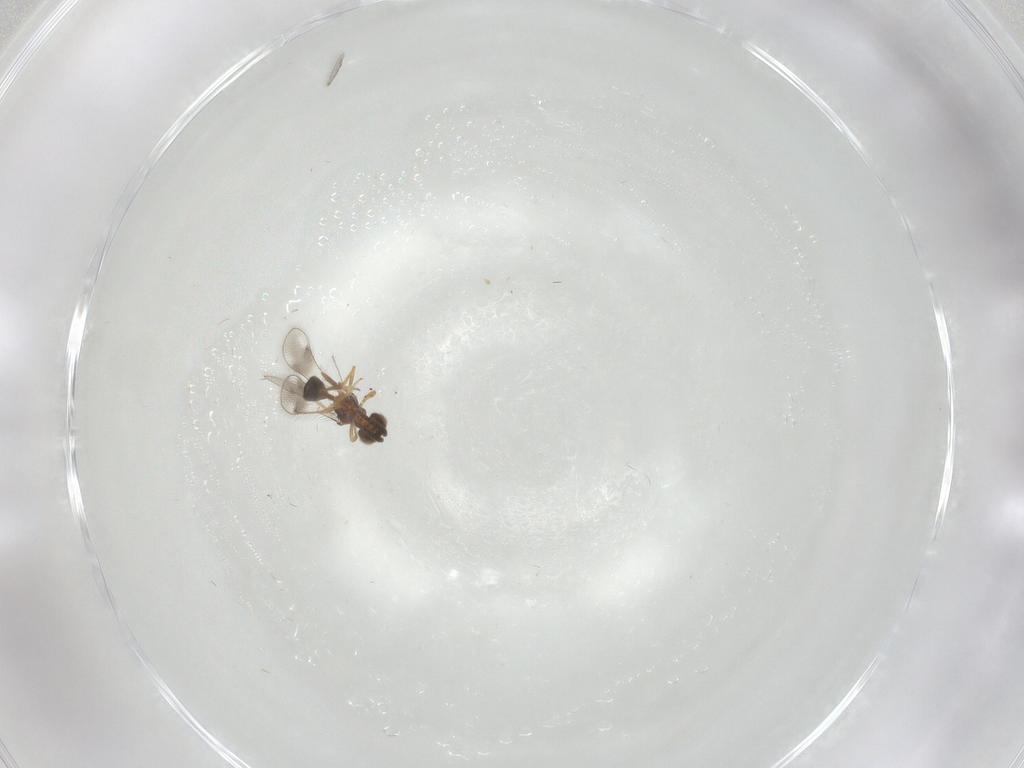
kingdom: Animalia
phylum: Arthropoda
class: Insecta
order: Hymenoptera
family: Pteromalidae
